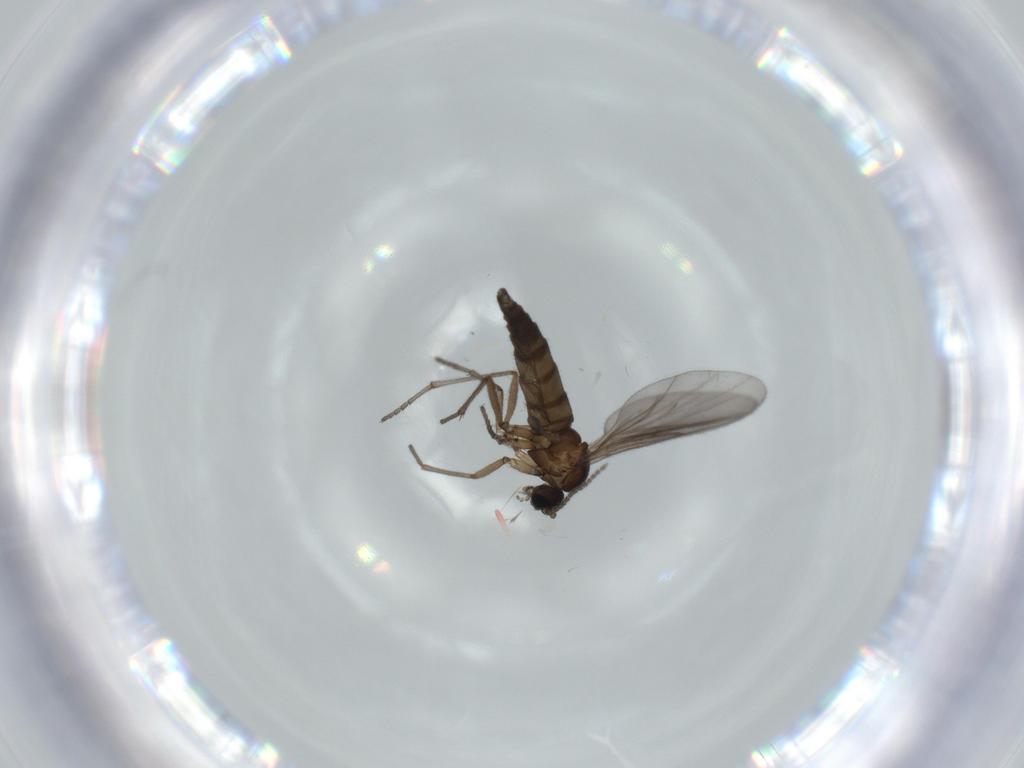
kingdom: Animalia
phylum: Arthropoda
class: Insecta
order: Diptera
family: Sciaridae
